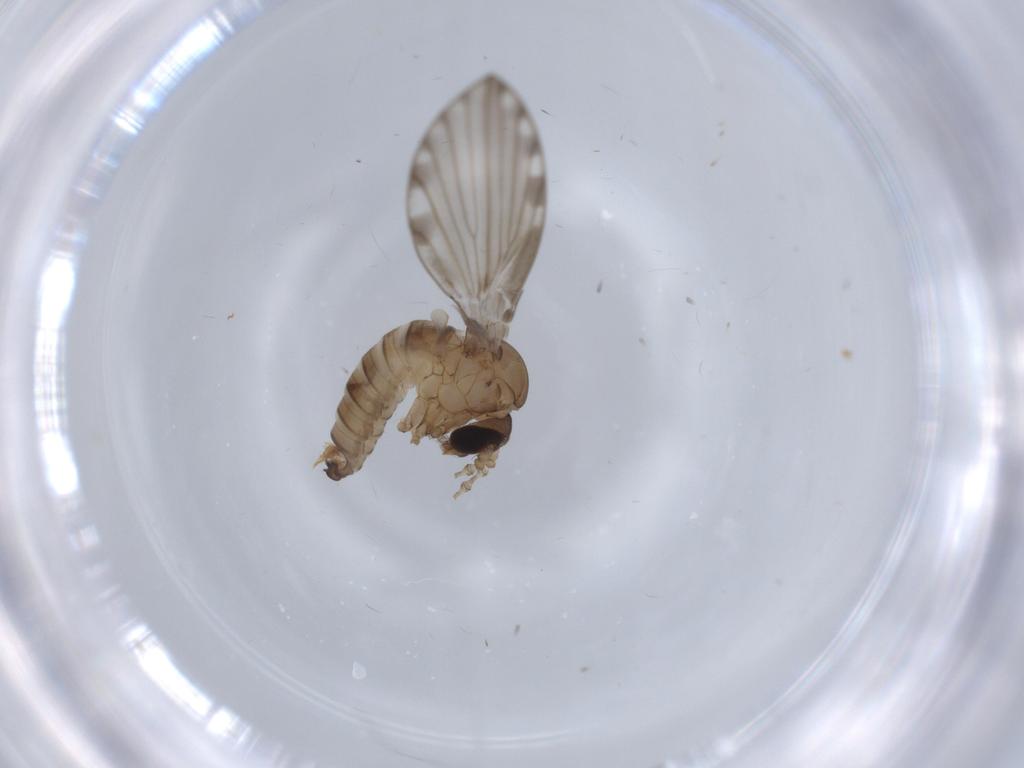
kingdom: Animalia
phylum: Arthropoda
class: Insecta
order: Diptera
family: Psychodidae
